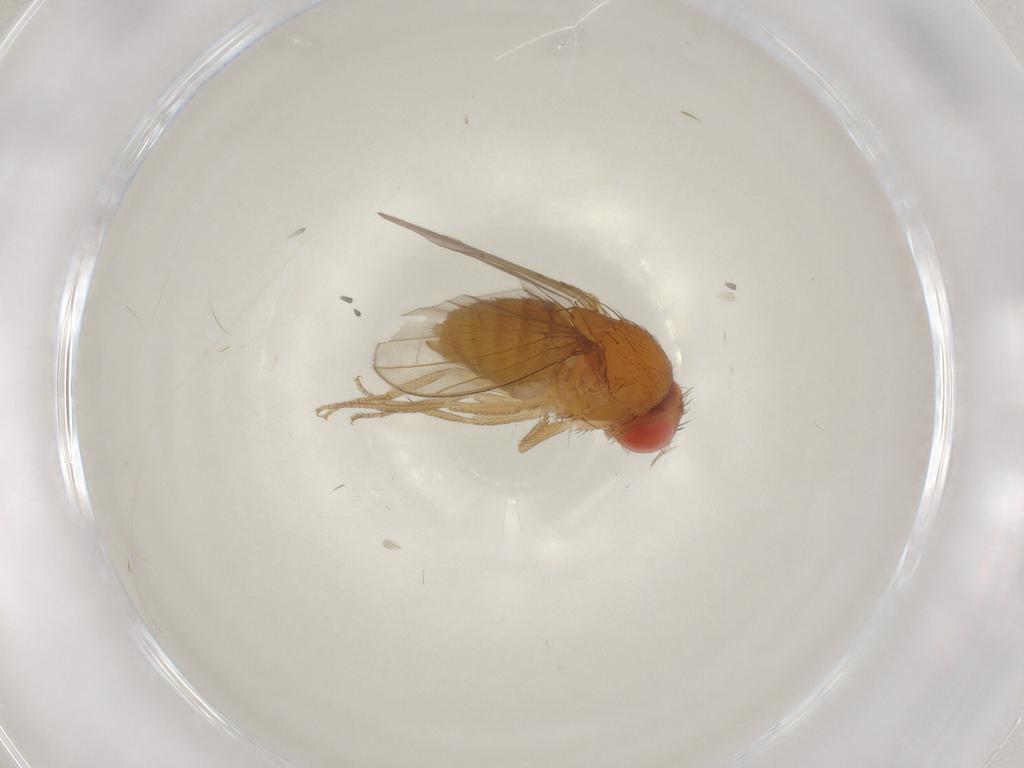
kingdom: Animalia
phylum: Arthropoda
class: Insecta
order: Diptera
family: Drosophilidae
